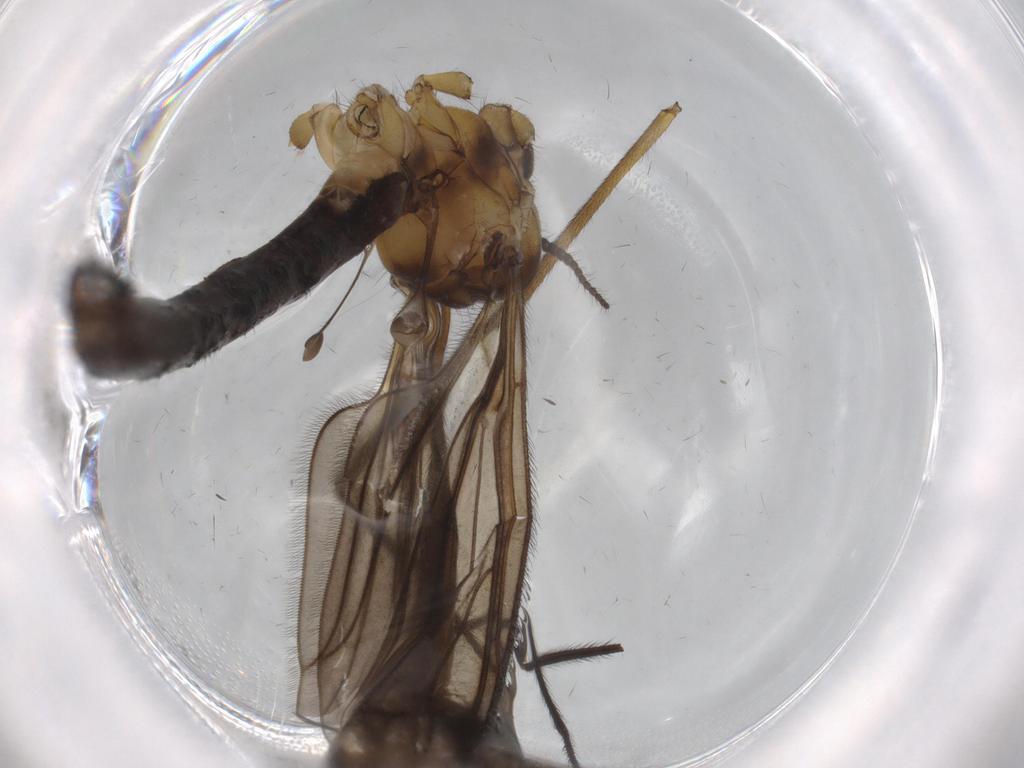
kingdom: Animalia
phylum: Arthropoda
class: Insecta
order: Diptera
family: Limoniidae
